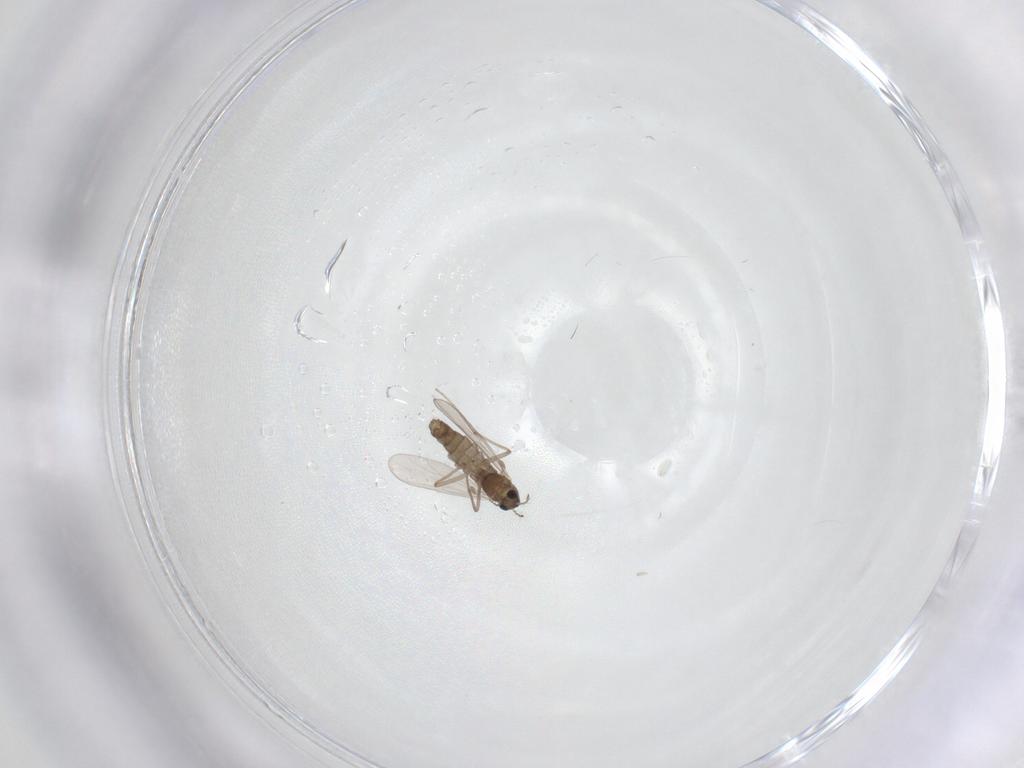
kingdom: Animalia
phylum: Arthropoda
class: Insecta
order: Diptera
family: Chironomidae
